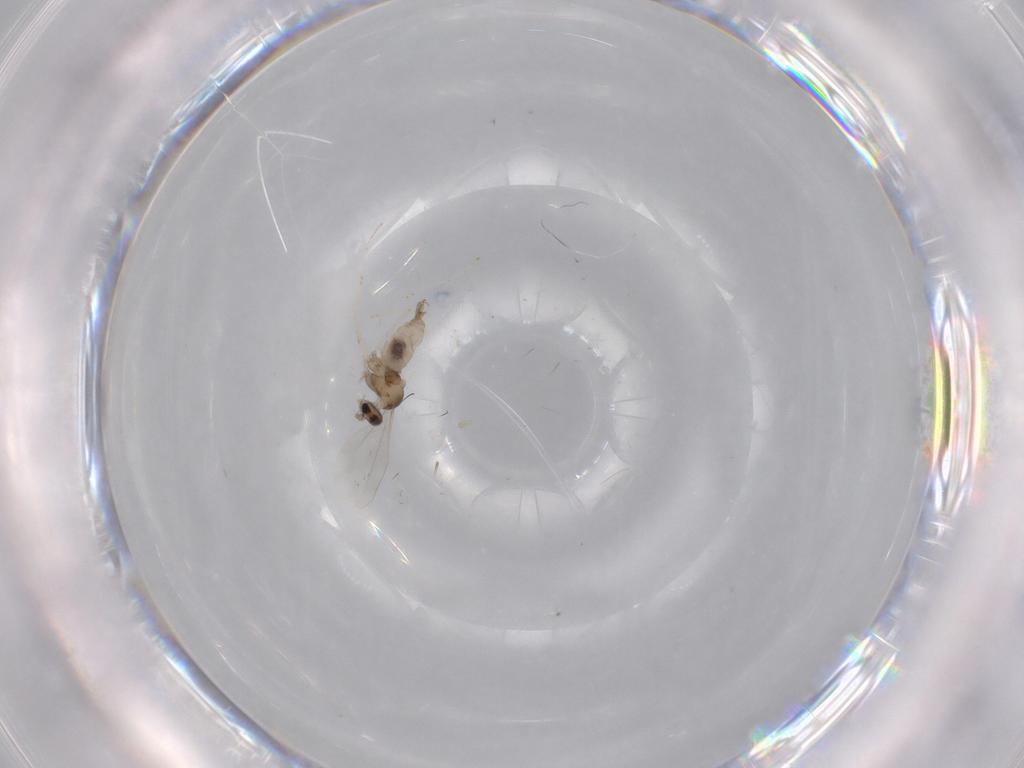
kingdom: Animalia
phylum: Arthropoda
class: Insecta
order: Diptera
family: Cecidomyiidae
